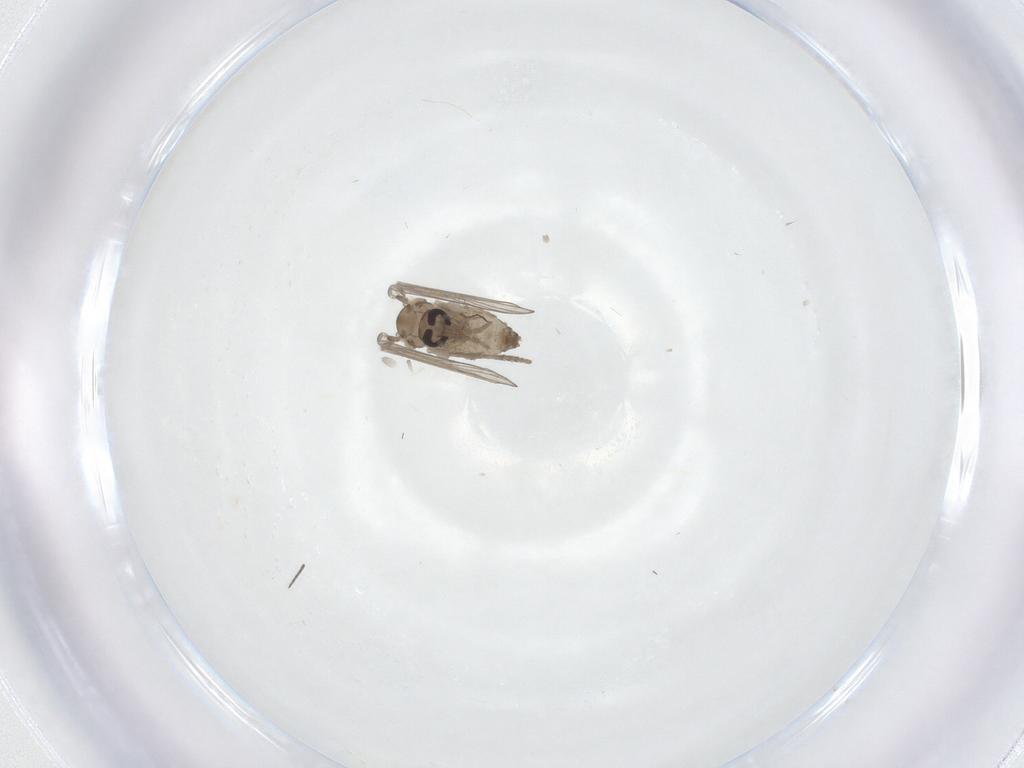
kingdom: Animalia
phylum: Arthropoda
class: Insecta
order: Diptera
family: Psychodidae
